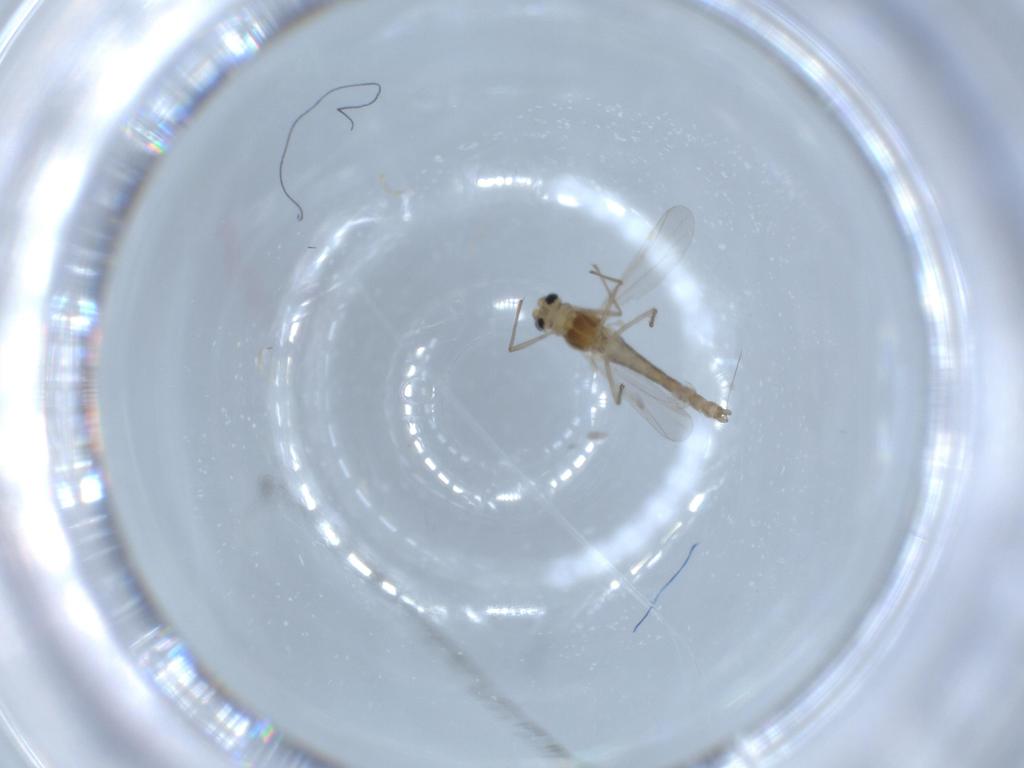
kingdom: Animalia
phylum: Arthropoda
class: Insecta
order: Diptera
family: Chironomidae
